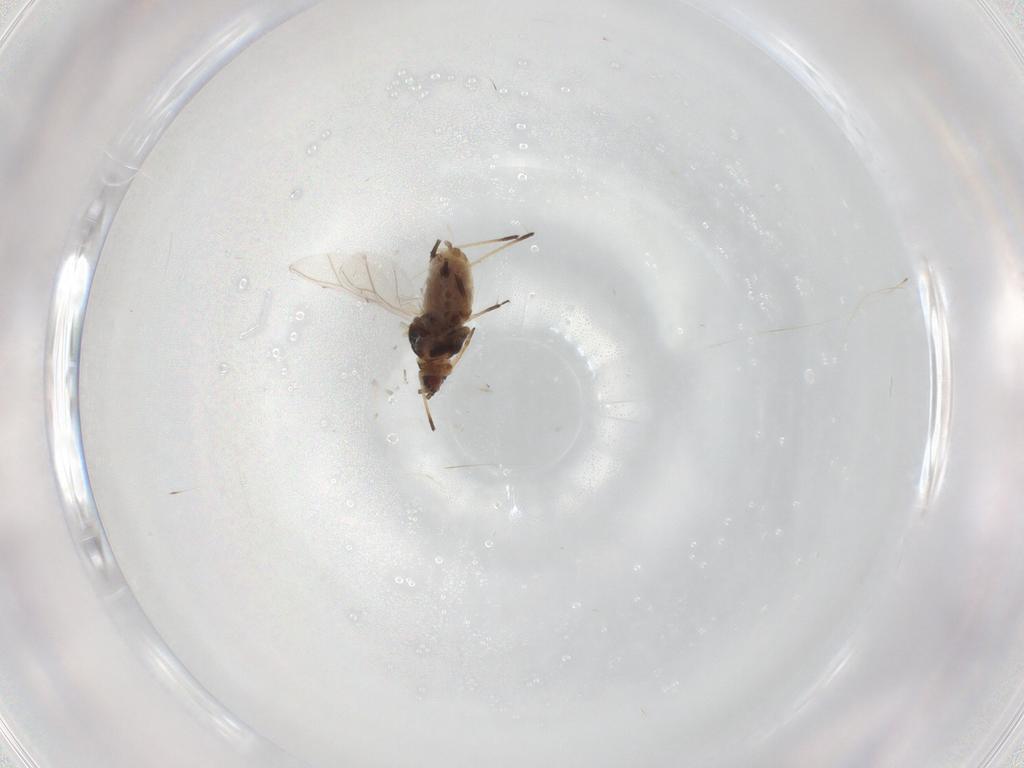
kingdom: Animalia
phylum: Arthropoda
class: Insecta
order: Hemiptera
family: Aphididae
